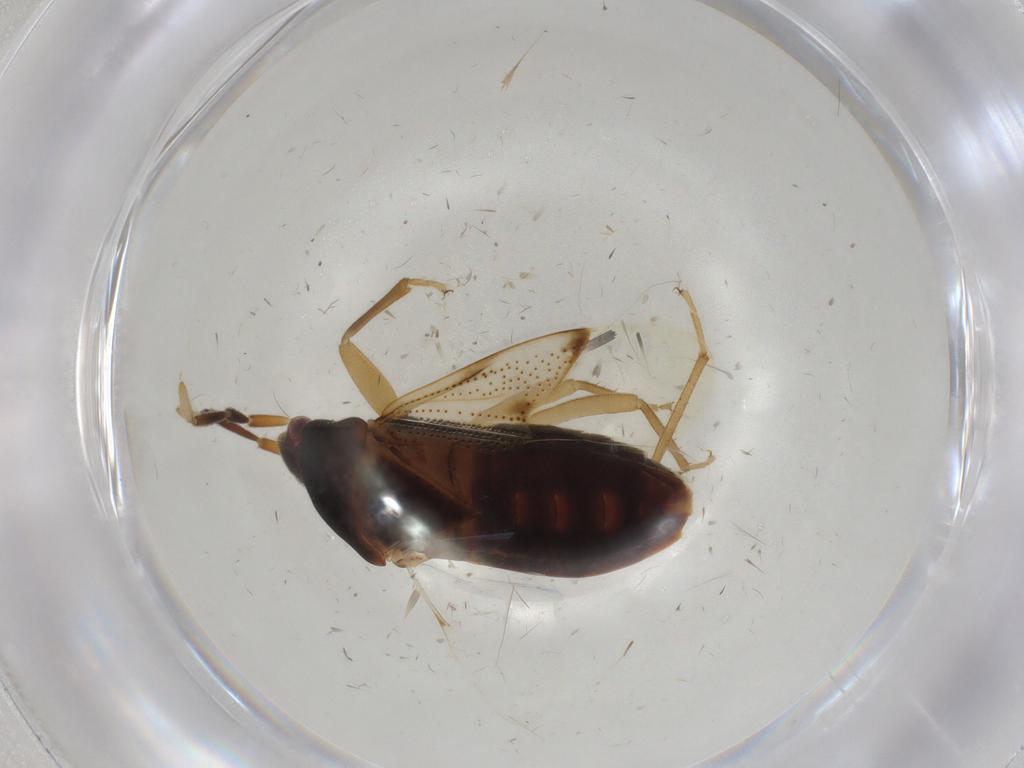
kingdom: Animalia
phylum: Arthropoda
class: Insecta
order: Hemiptera
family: Rhyparochromidae
